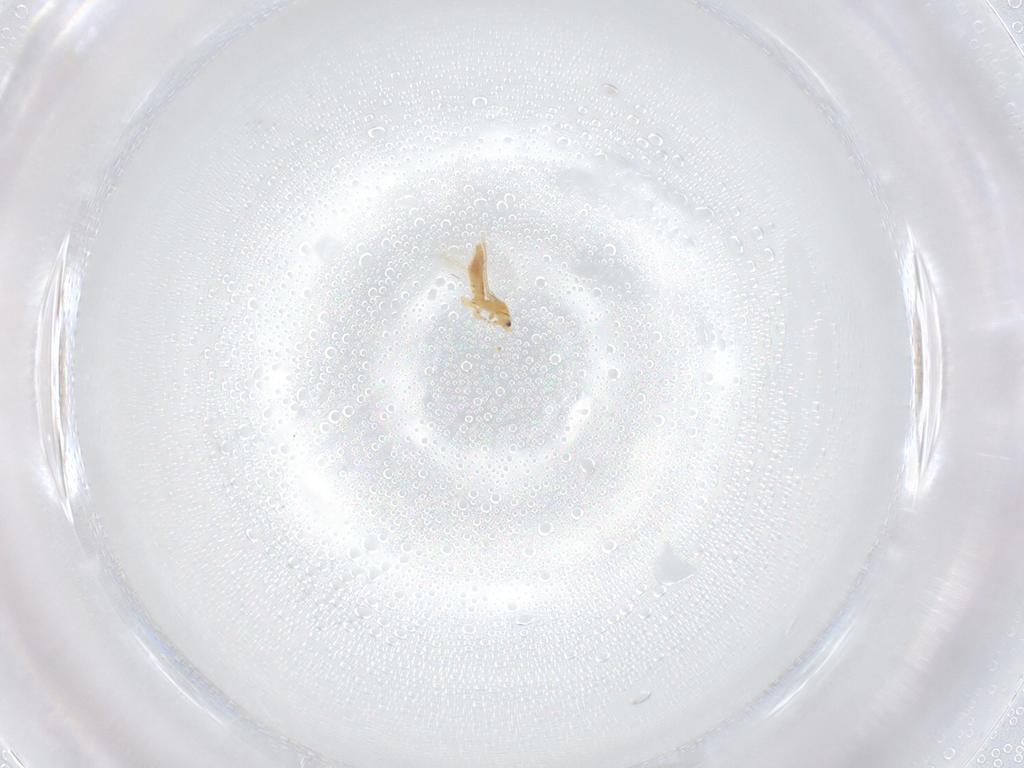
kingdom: Animalia
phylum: Arthropoda
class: Insecta
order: Thysanoptera
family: Thripidae
